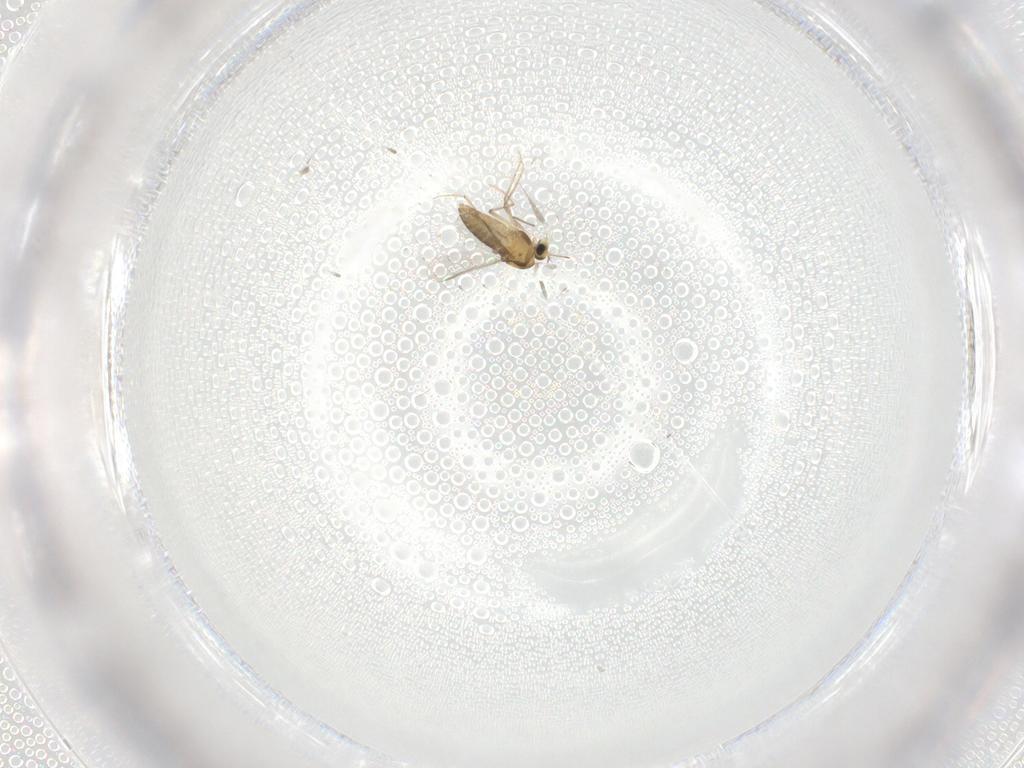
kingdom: Animalia
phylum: Arthropoda
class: Insecta
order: Diptera
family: Chironomidae
